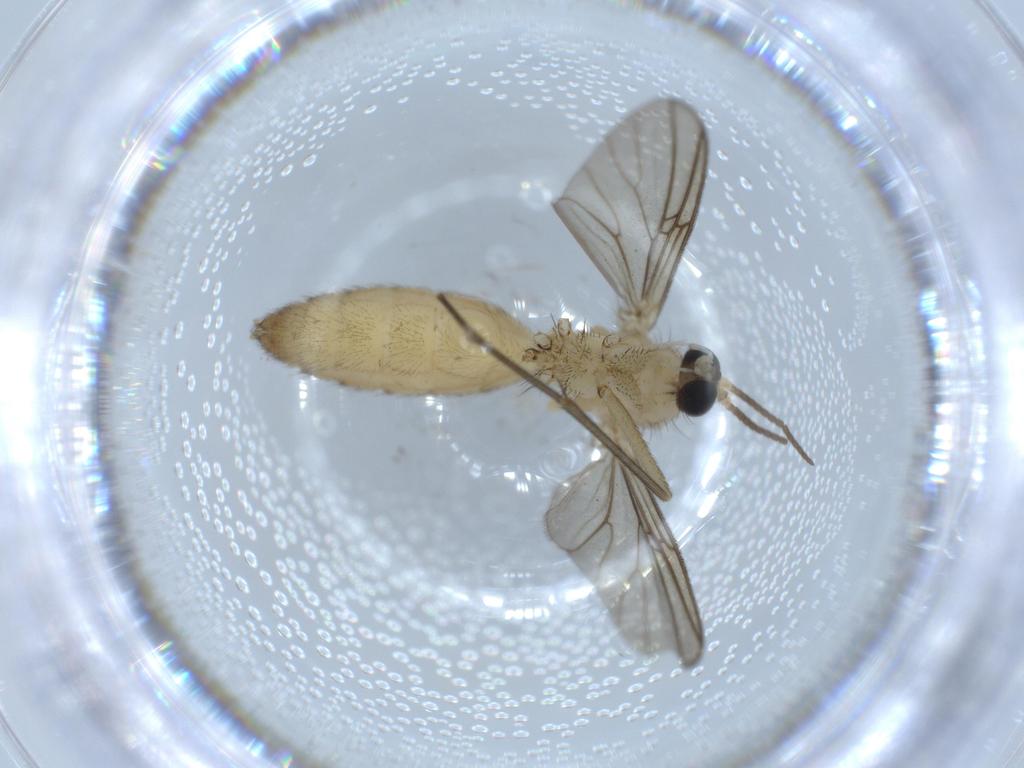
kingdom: Animalia
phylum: Arthropoda
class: Insecta
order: Diptera
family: Mycetophilidae
